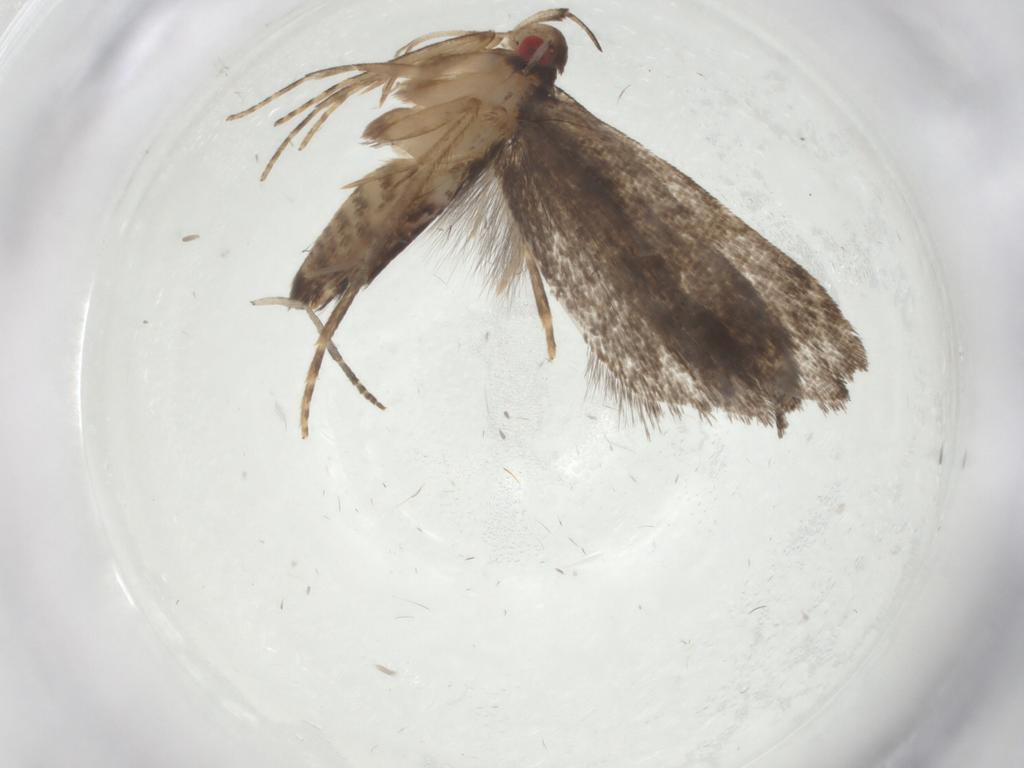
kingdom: Animalia
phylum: Arthropoda
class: Insecta
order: Lepidoptera
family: Gelechiidae
